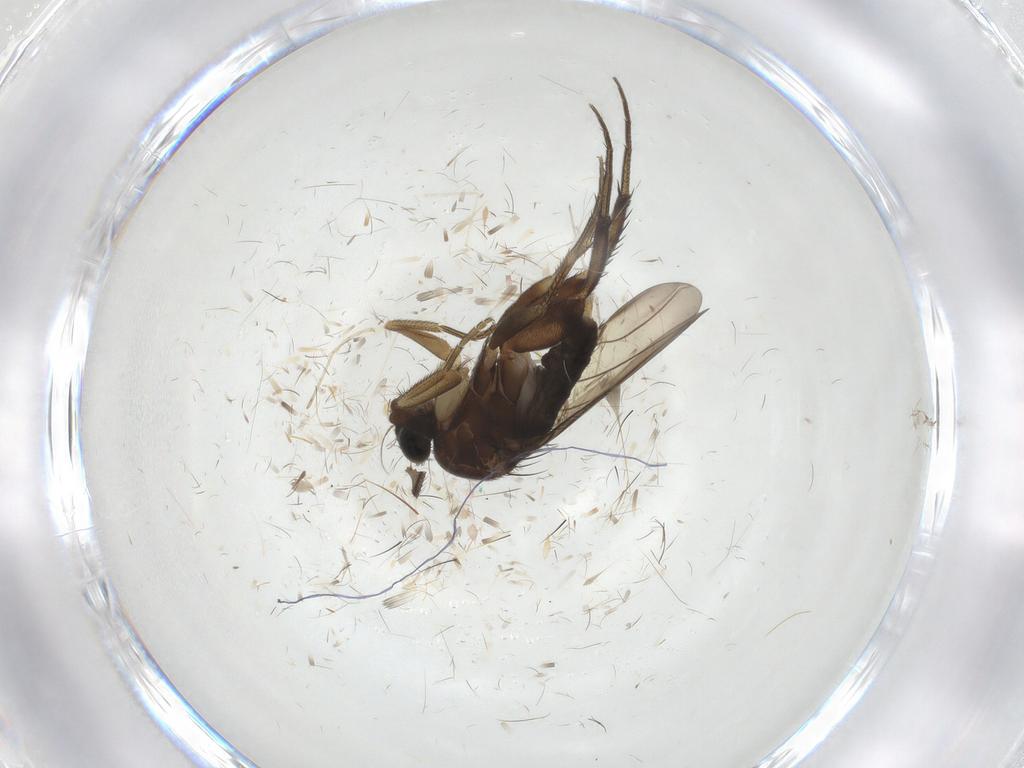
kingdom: Animalia
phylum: Arthropoda
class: Insecta
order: Diptera
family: Phoridae
